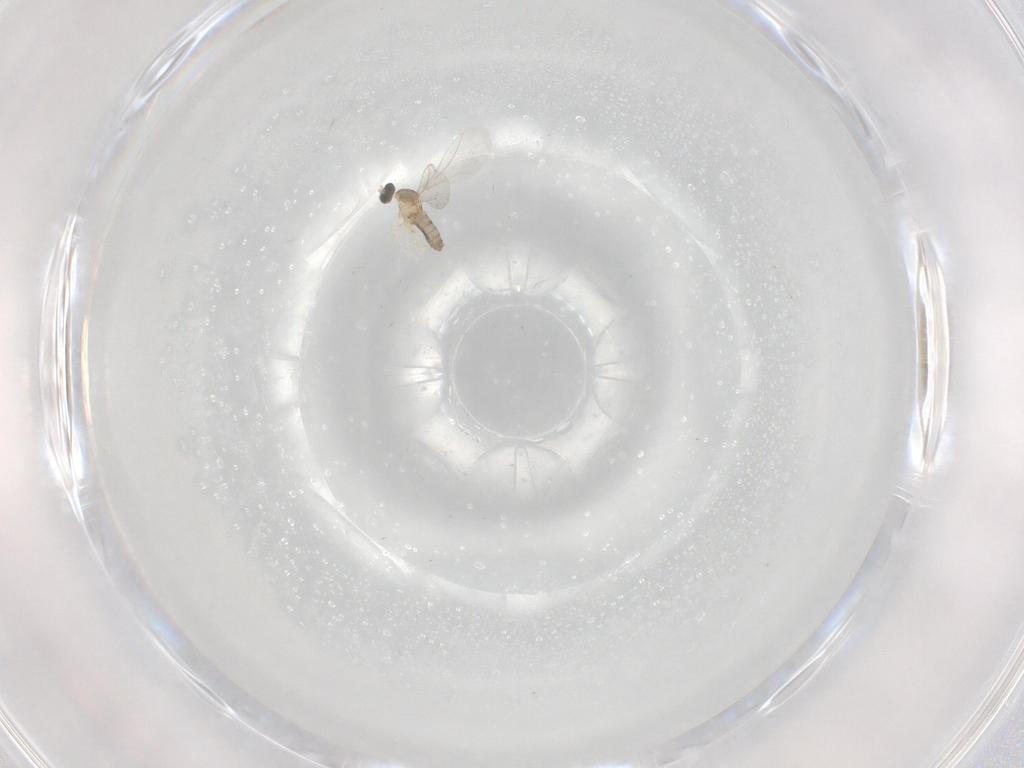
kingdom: Animalia
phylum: Arthropoda
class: Insecta
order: Diptera
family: Cecidomyiidae
